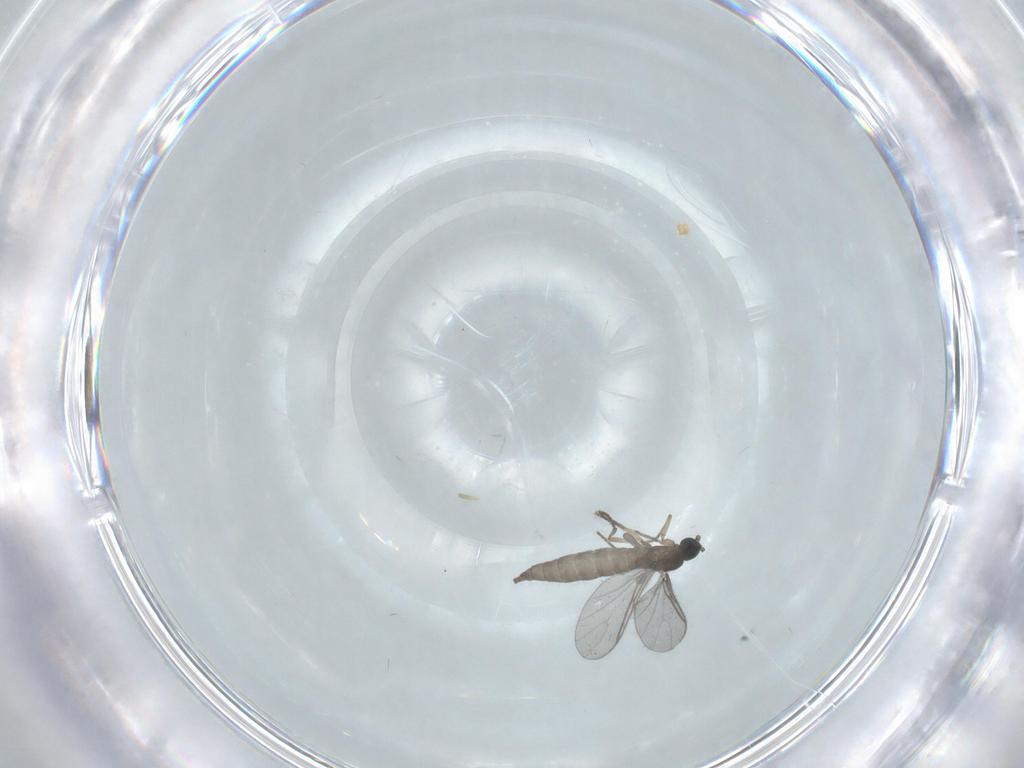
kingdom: Animalia
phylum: Arthropoda
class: Insecta
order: Diptera
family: Sciaridae
